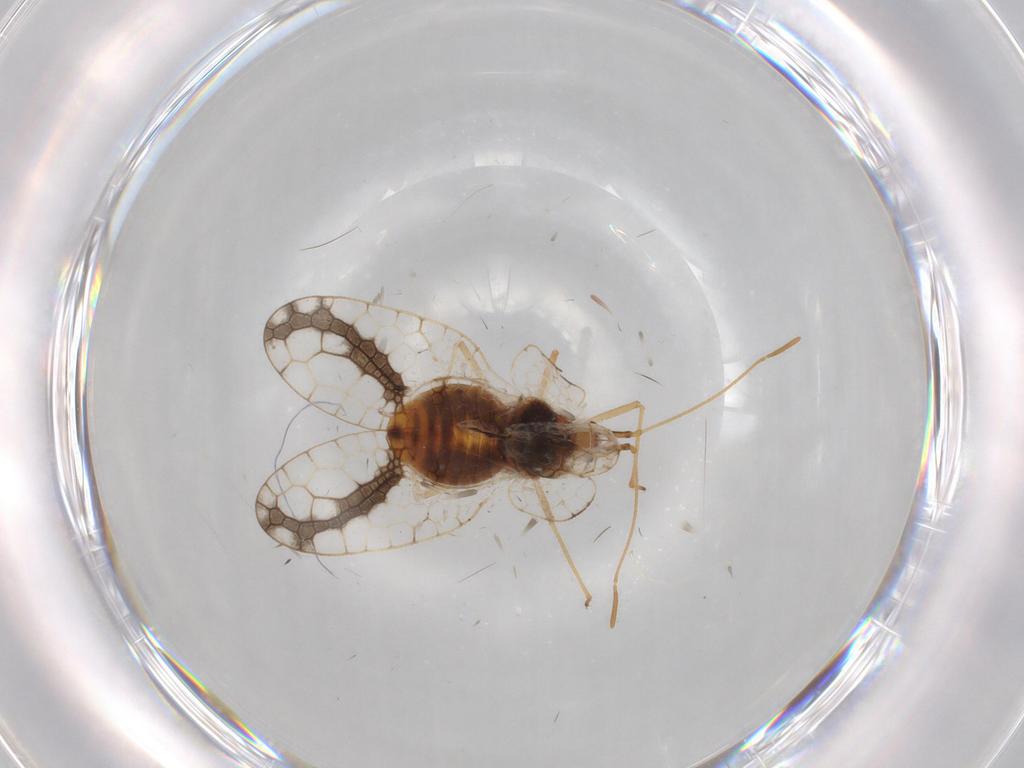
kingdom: Animalia
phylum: Arthropoda
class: Insecta
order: Hemiptera
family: Tingidae
